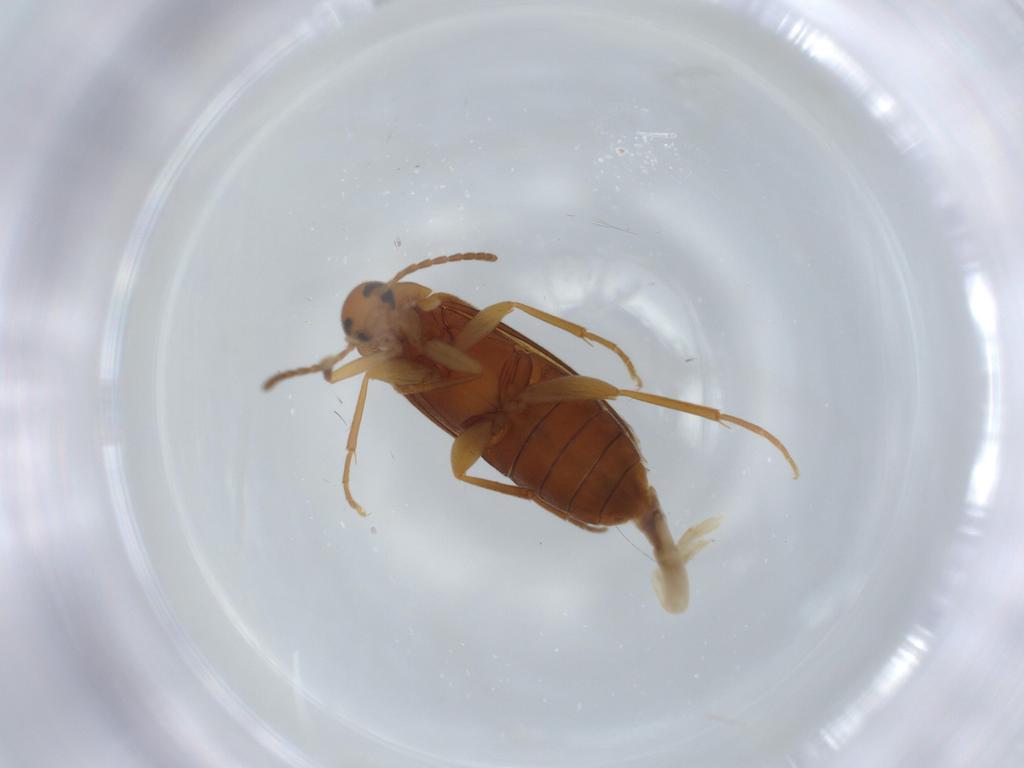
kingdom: Animalia
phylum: Arthropoda
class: Insecta
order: Coleoptera
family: Scraptiidae
